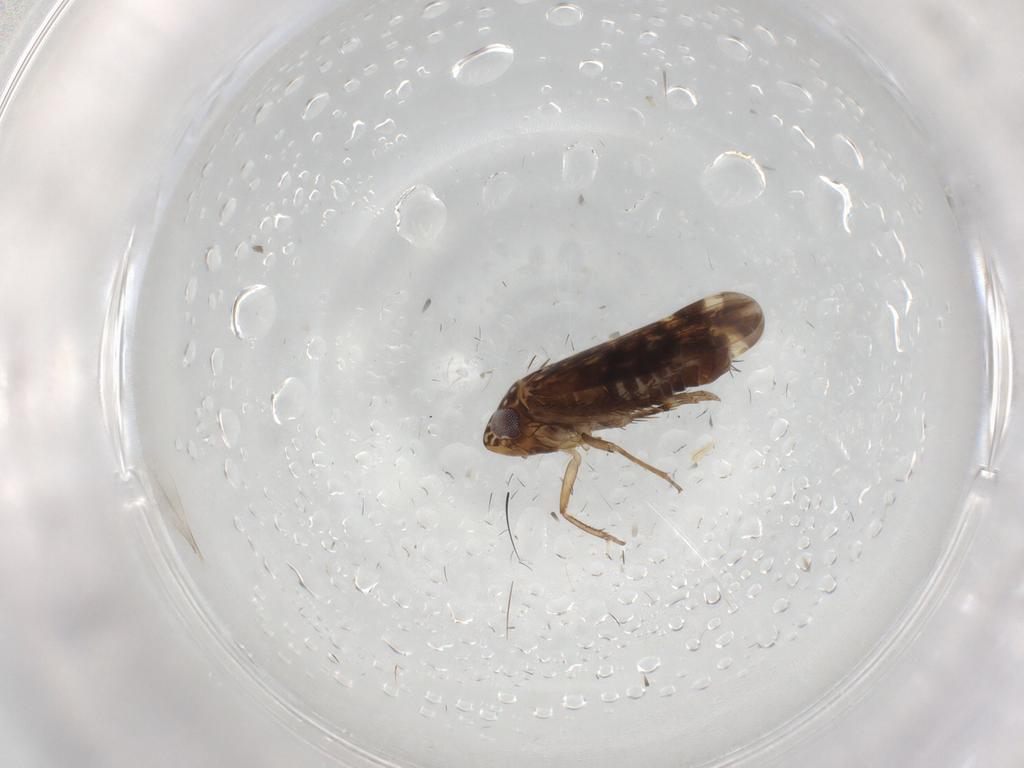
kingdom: Animalia
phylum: Arthropoda
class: Insecta
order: Hemiptera
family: Cicadellidae
